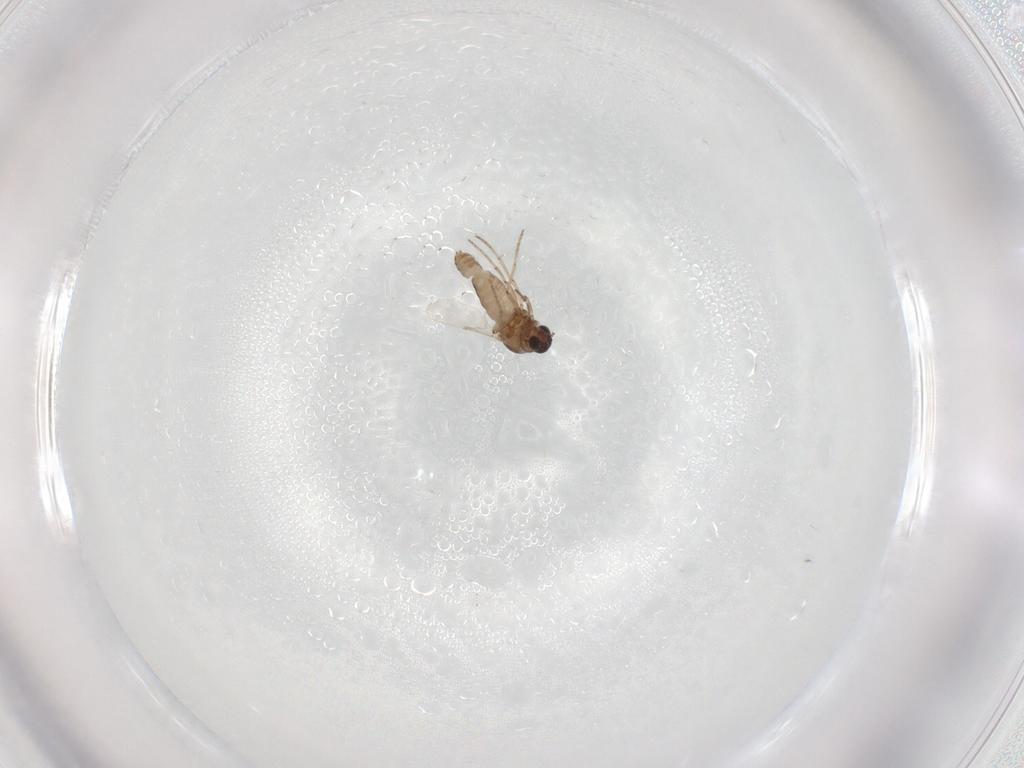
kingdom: Animalia
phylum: Arthropoda
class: Insecta
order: Diptera
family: Ceratopogonidae
